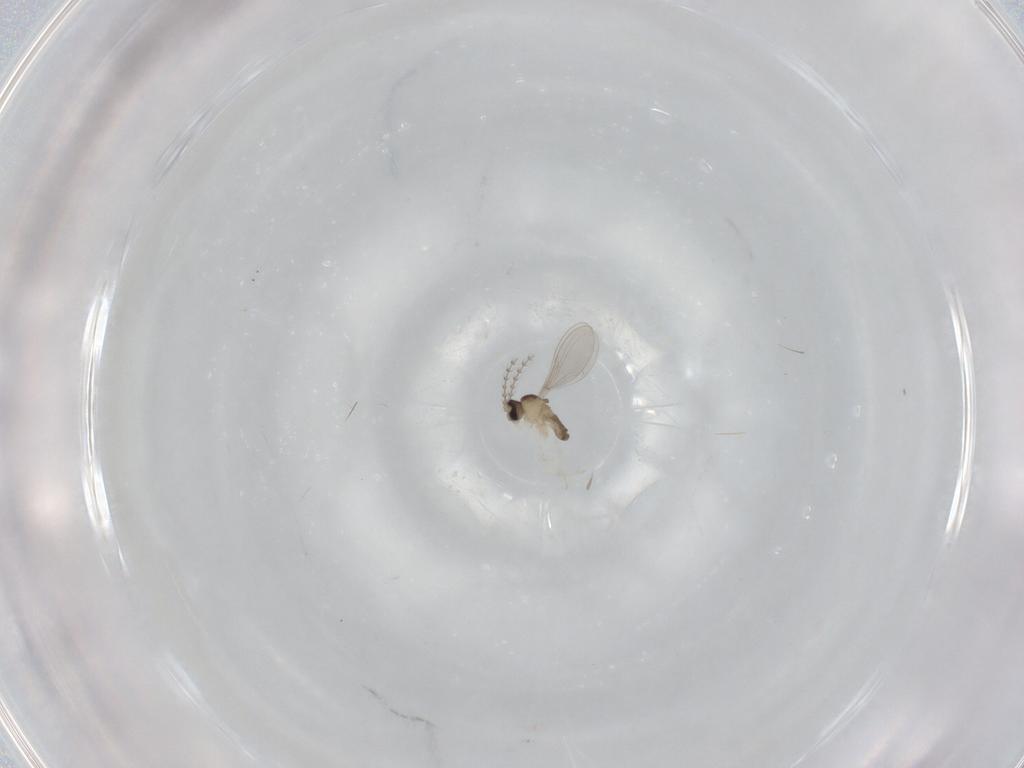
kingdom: Animalia
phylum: Arthropoda
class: Insecta
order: Diptera
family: Cecidomyiidae
